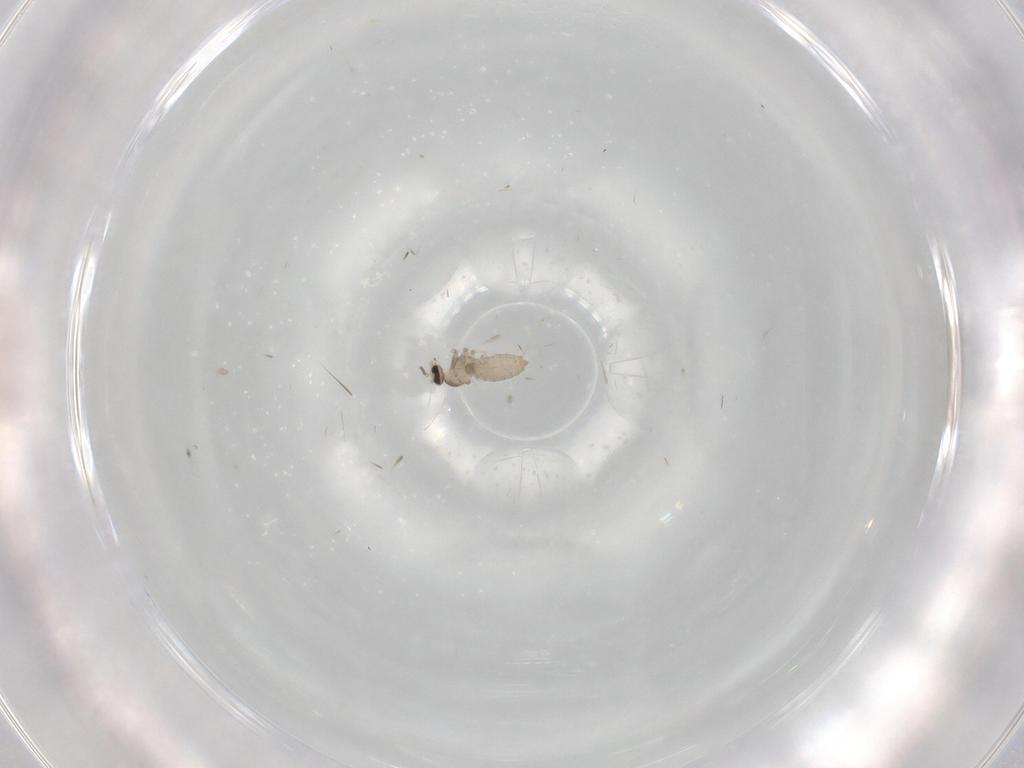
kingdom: Animalia
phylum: Arthropoda
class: Insecta
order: Diptera
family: Cecidomyiidae
